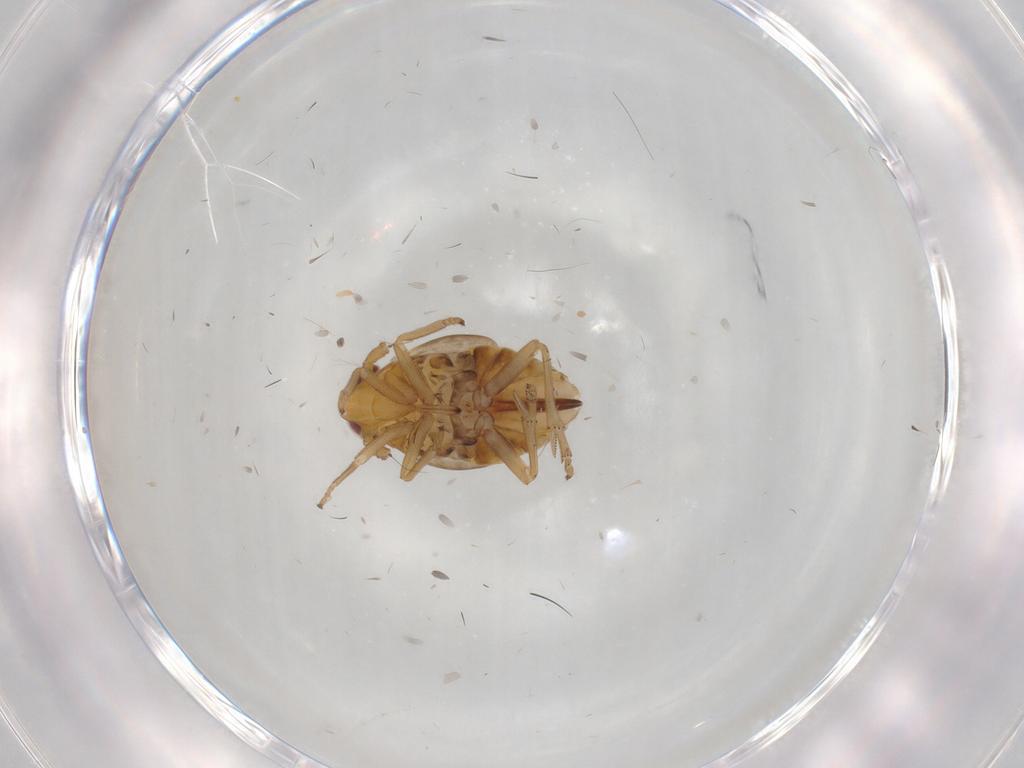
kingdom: Animalia
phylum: Arthropoda
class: Insecta
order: Hemiptera
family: Delphacidae
